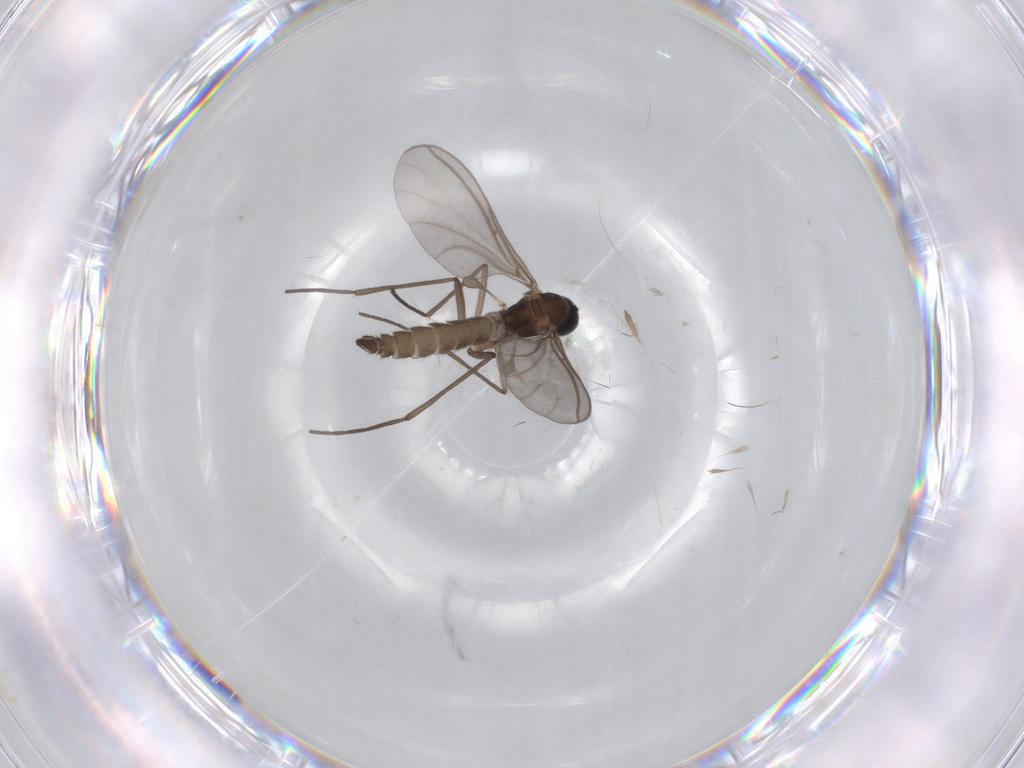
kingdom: Animalia
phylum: Arthropoda
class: Insecta
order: Diptera
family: Sciaridae
